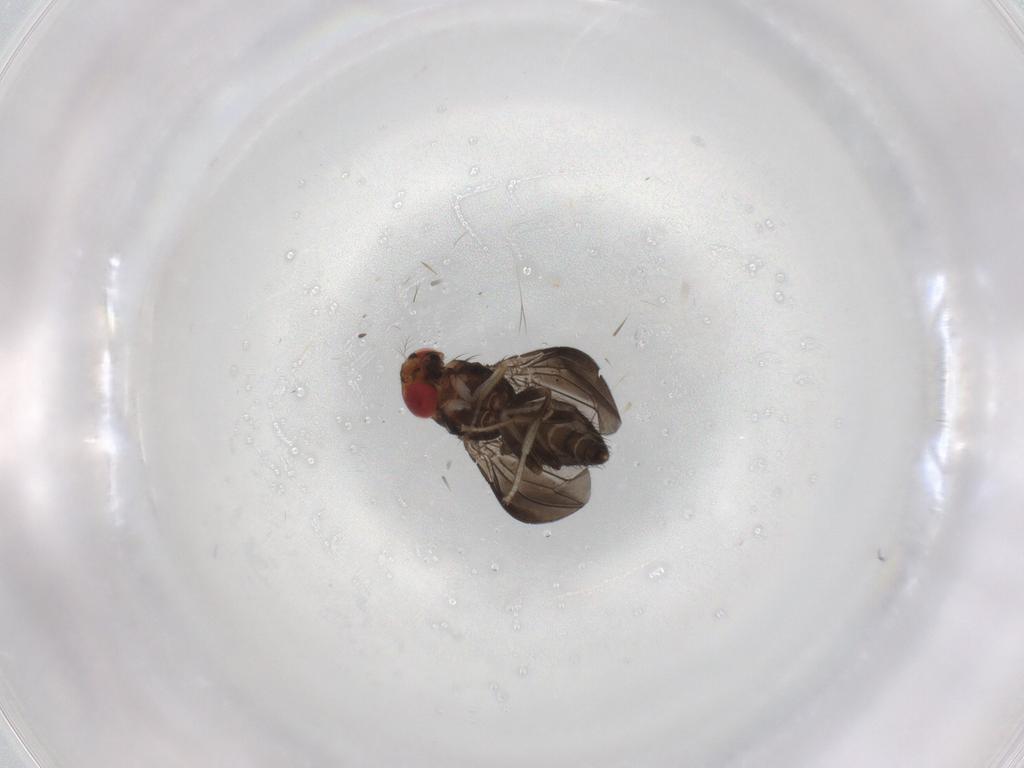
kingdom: Animalia
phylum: Arthropoda
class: Insecta
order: Diptera
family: Drosophilidae
